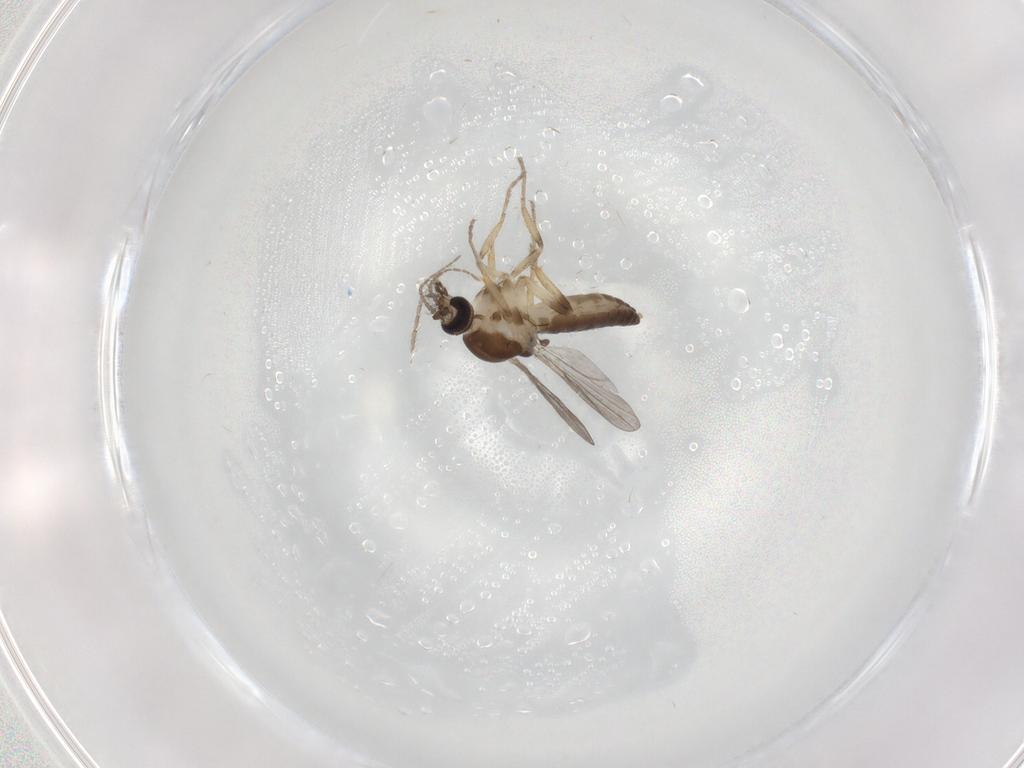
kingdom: Animalia
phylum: Arthropoda
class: Insecta
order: Diptera
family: Ceratopogonidae
